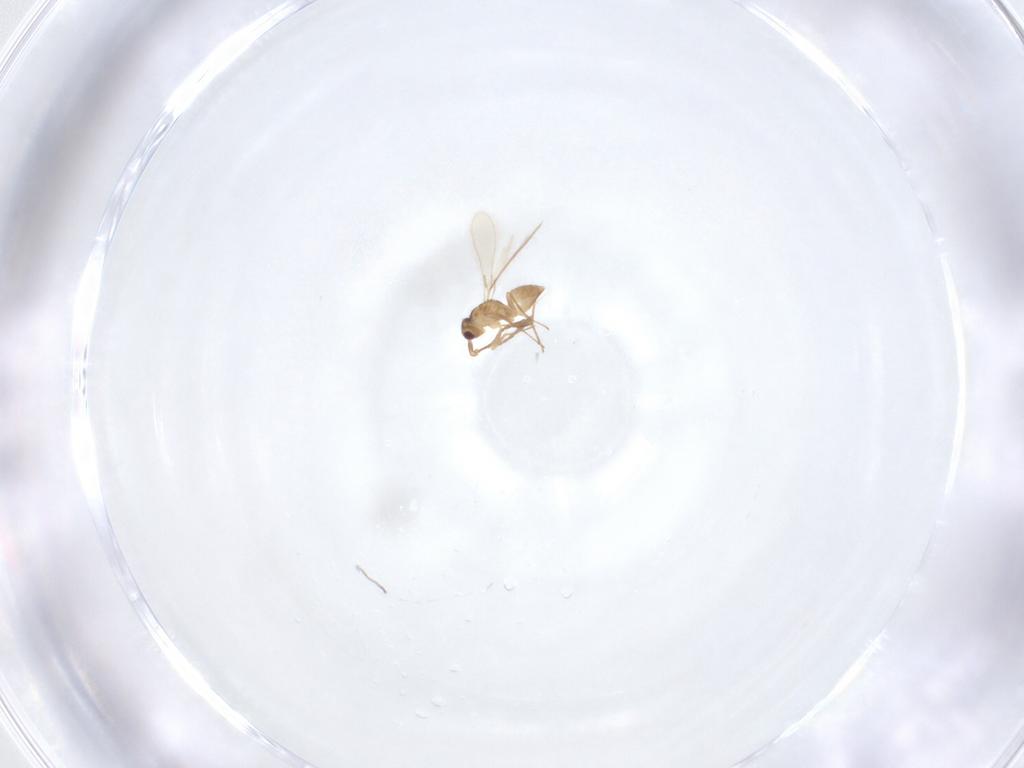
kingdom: Animalia
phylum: Arthropoda
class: Insecta
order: Hymenoptera
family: Mymaridae
